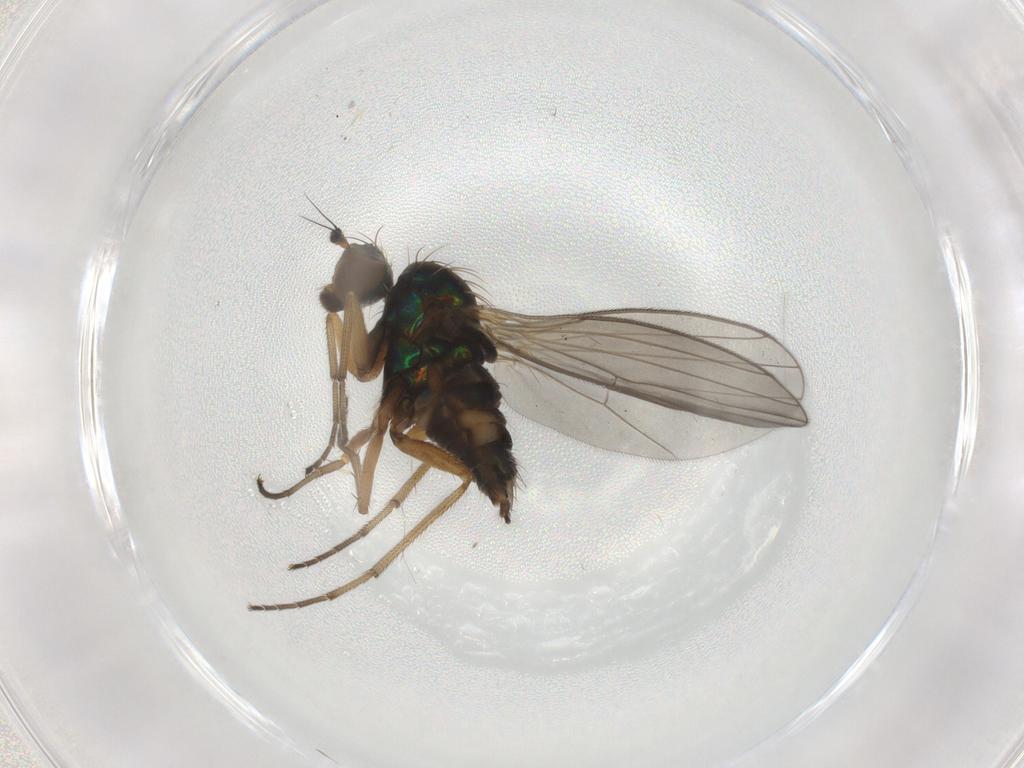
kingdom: Animalia
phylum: Arthropoda
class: Insecta
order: Diptera
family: Dolichopodidae
